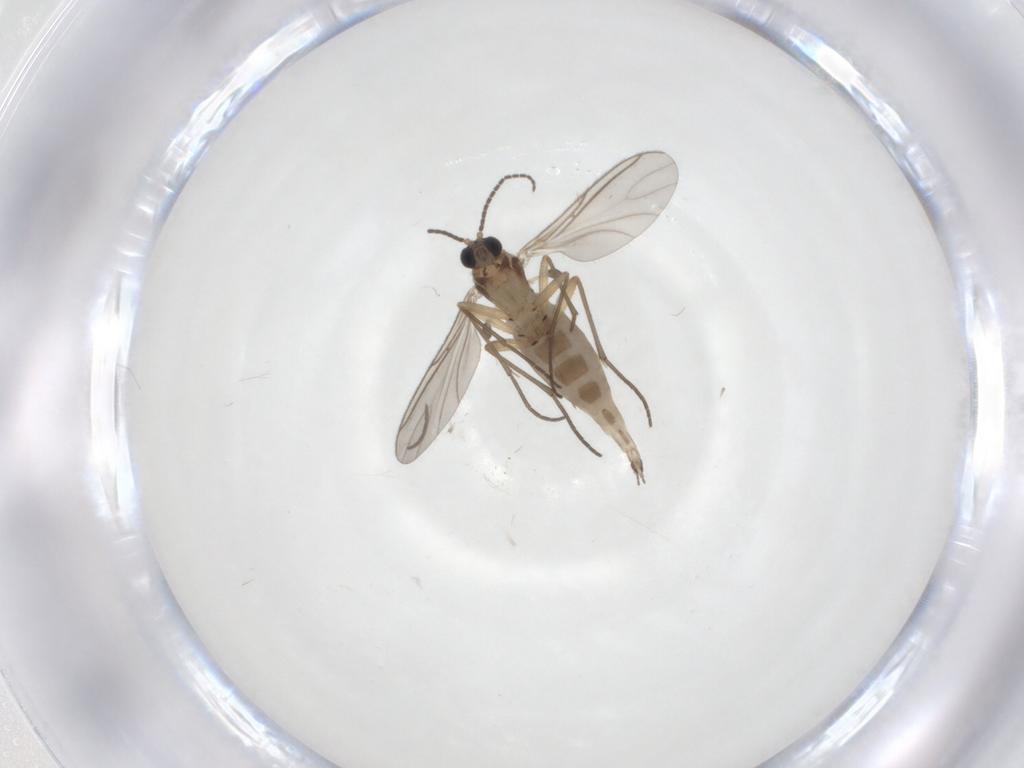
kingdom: Animalia
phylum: Arthropoda
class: Insecta
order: Diptera
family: Sciaridae
